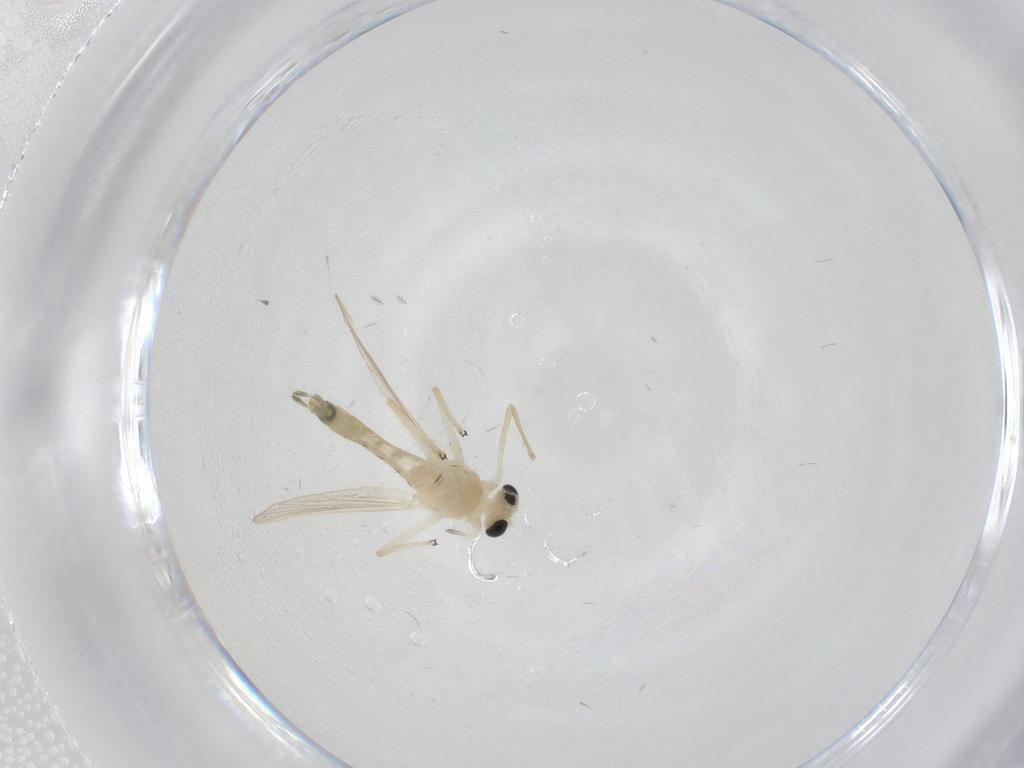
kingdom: Animalia
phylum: Arthropoda
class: Insecta
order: Diptera
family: Chironomidae
